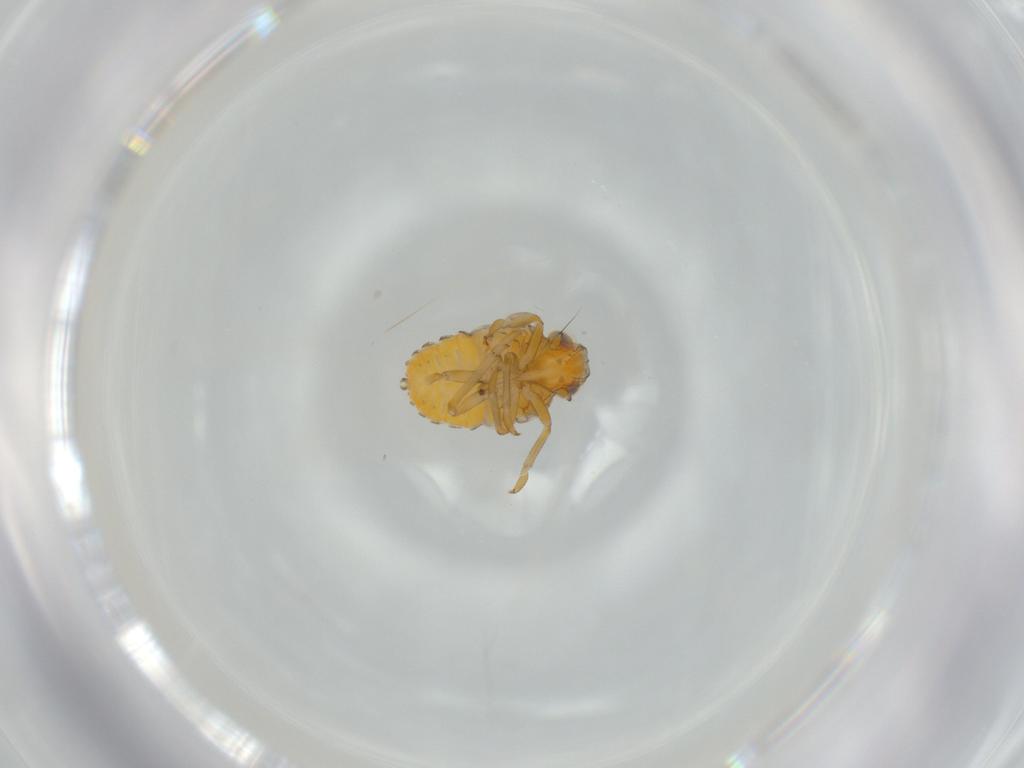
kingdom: Animalia
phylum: Arthropoda
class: Insecta
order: Hemiptera
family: Issidae
